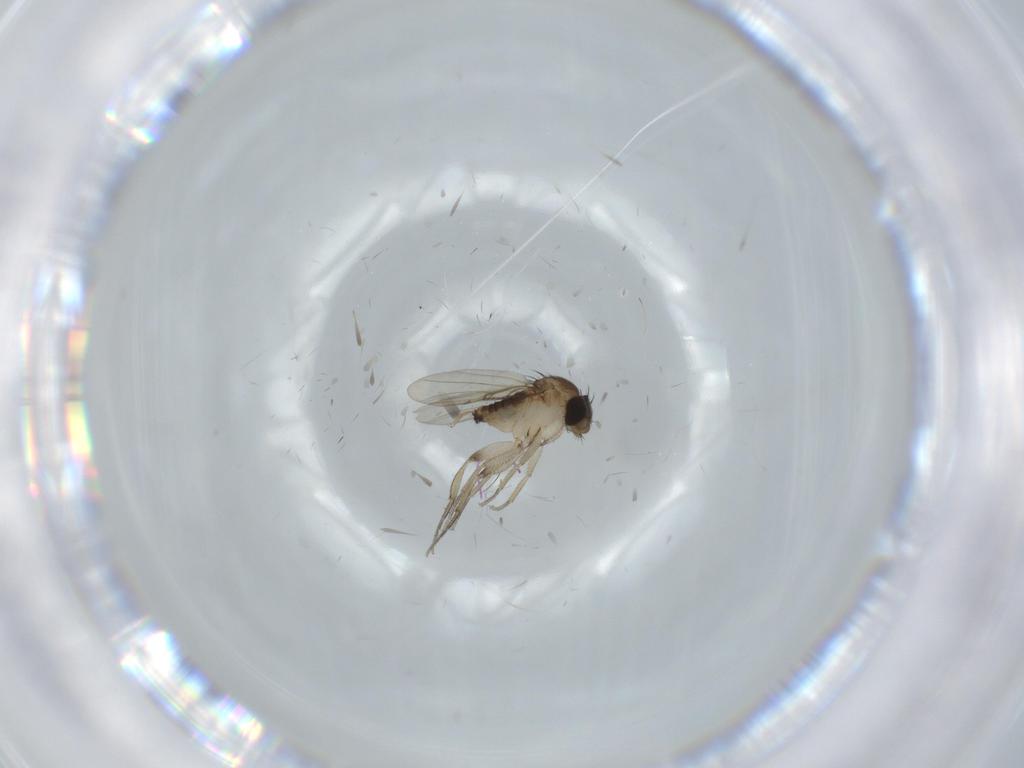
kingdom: Animalia
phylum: Arthropoda
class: Insecta
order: Diptera
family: Phoridae
